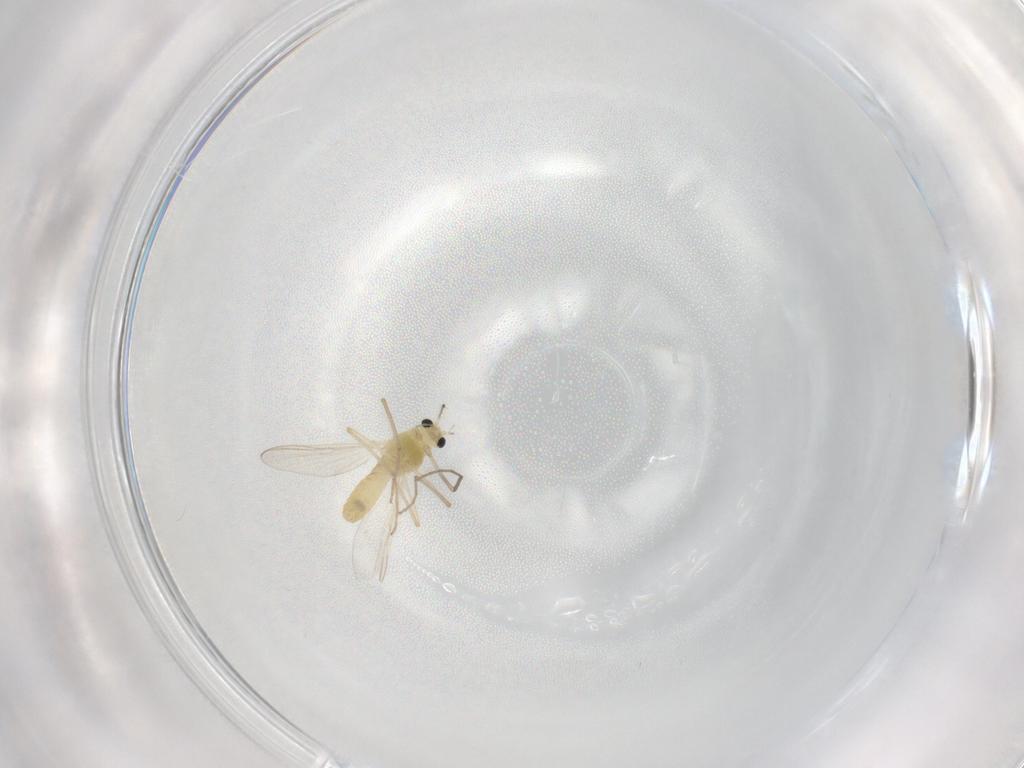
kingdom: Animalia
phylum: Arthropoda
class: Insecta
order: Diptera
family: Chironomidae
